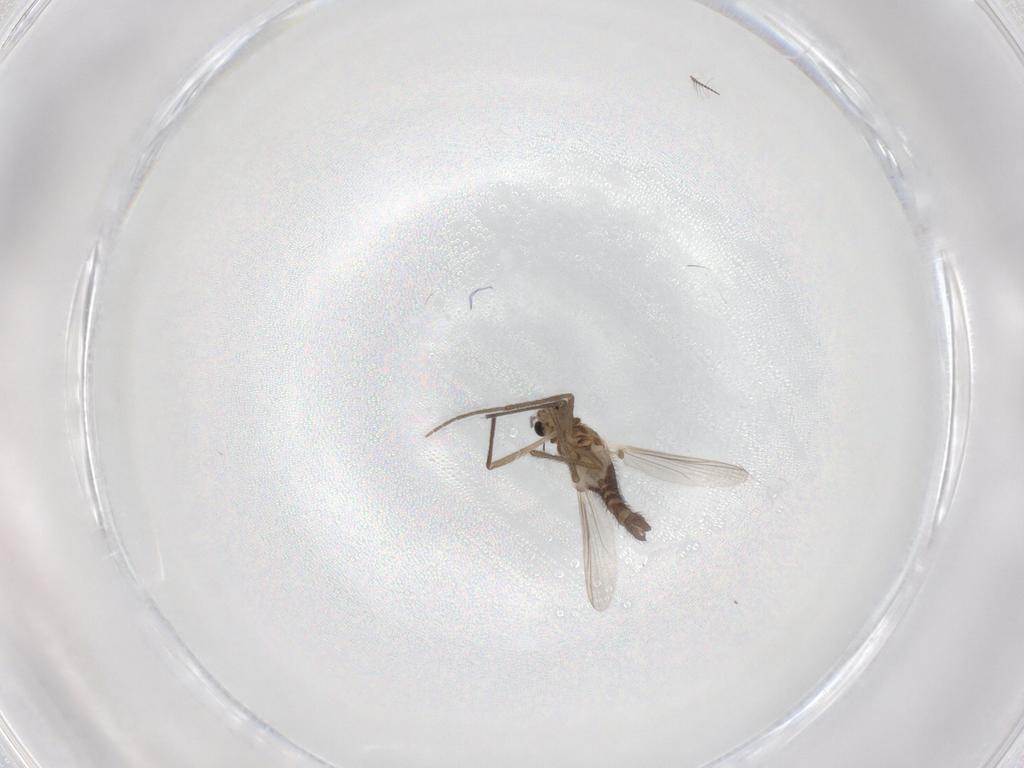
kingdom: Animalia
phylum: Arthropoda
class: Insecta
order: Diptera
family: Chironomidae
